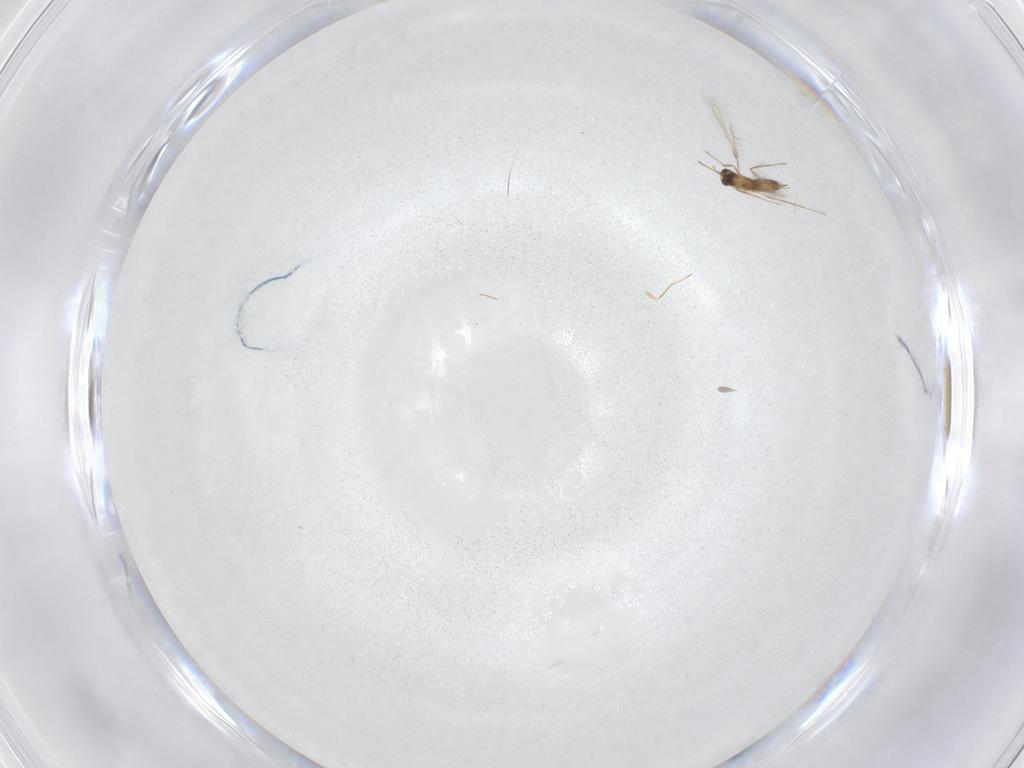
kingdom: Animalia
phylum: Arthropoda
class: Insecta
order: Hymenoptera
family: Mymaridae
